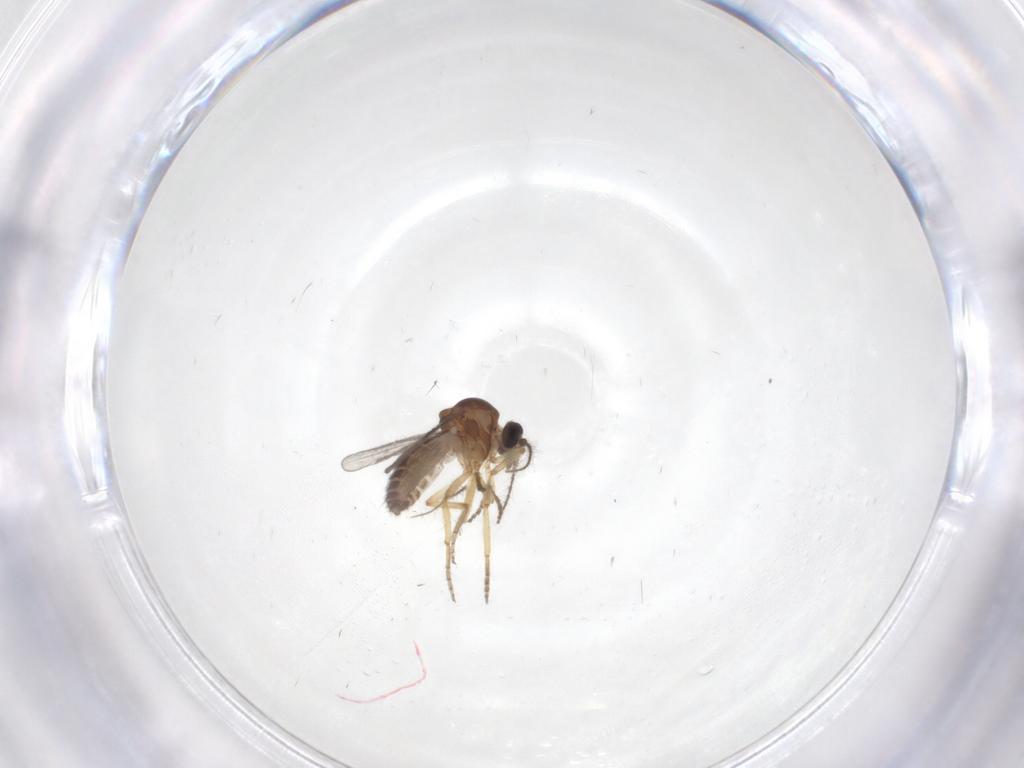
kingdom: Animalia
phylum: Arthropoda
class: Insecta
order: Diptera
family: Ceratopogonidae
